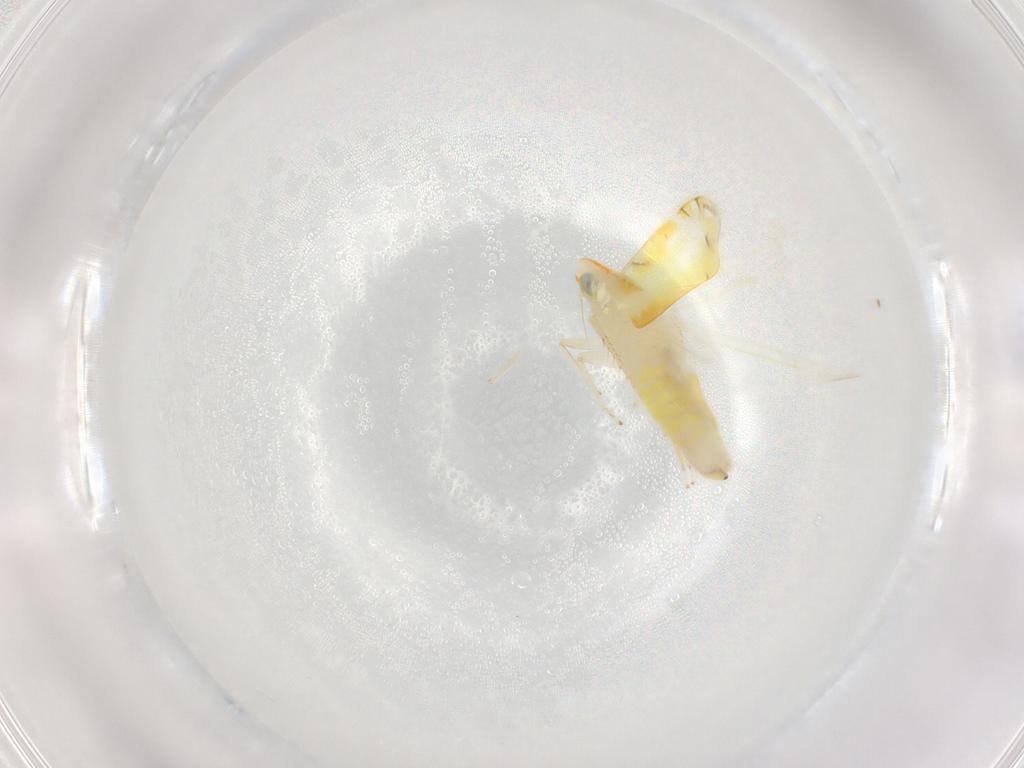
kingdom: Animalia
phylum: Arthropoda
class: Insecta
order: Hemiptera
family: Cicadellidae
